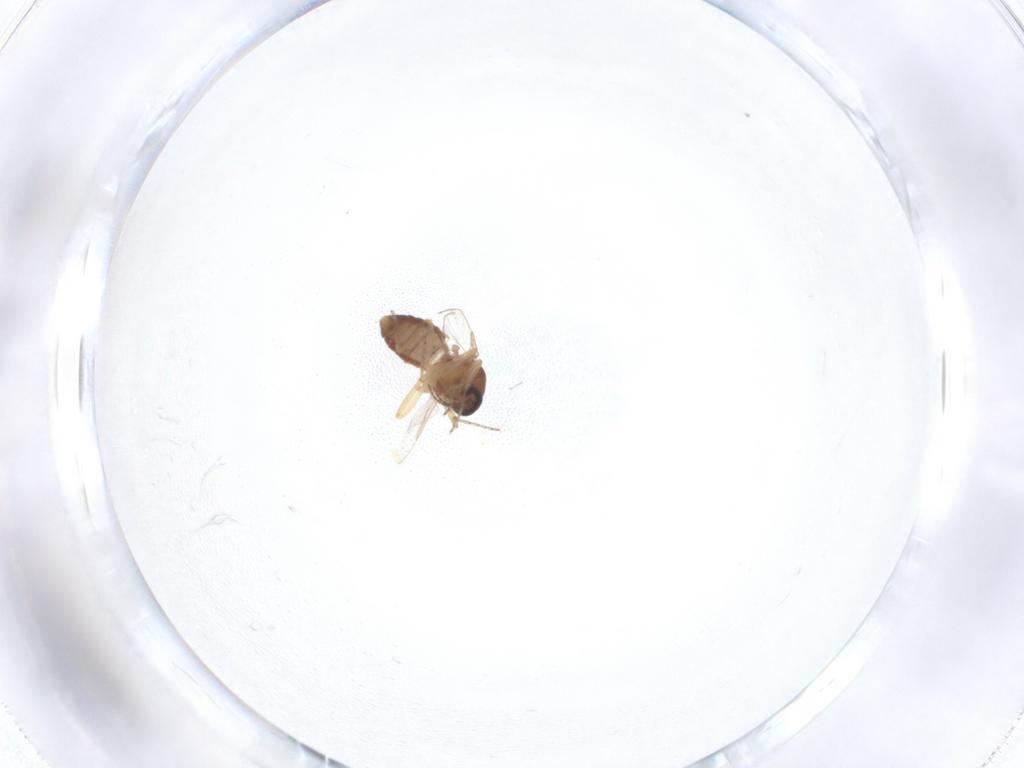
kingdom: Animalia
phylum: Arthropoda
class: Insecta
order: Diptera
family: Ceratopogonidae
